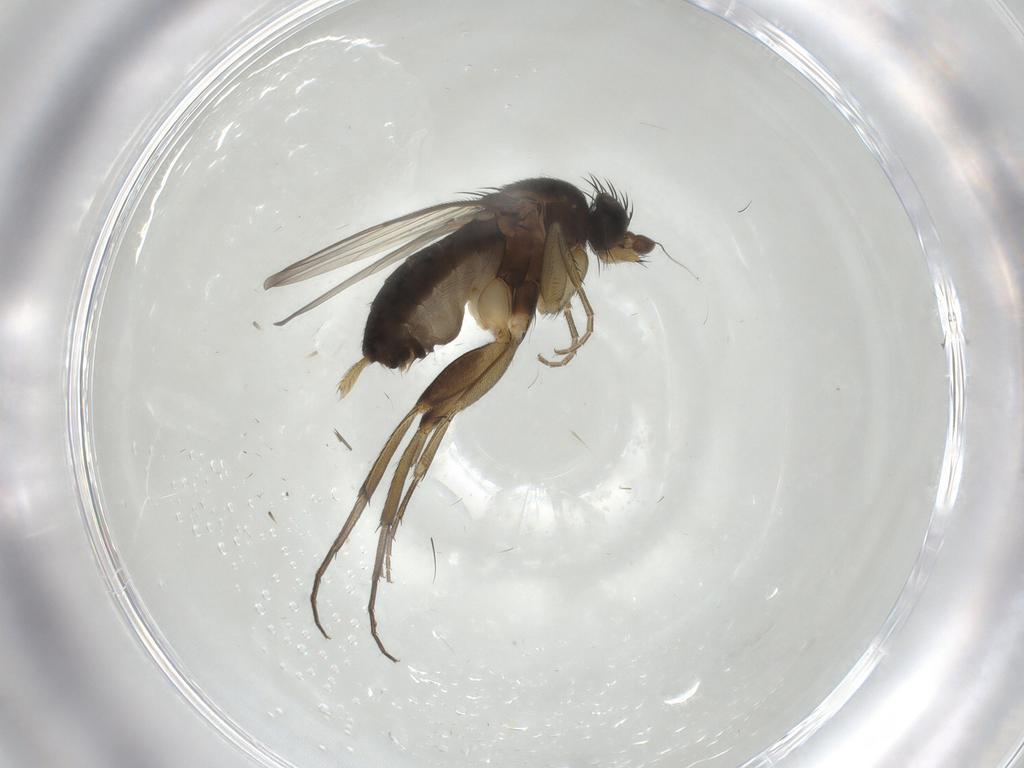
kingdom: Animalia
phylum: Arthropoda
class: Insecta
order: Diptera
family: Phoridae
